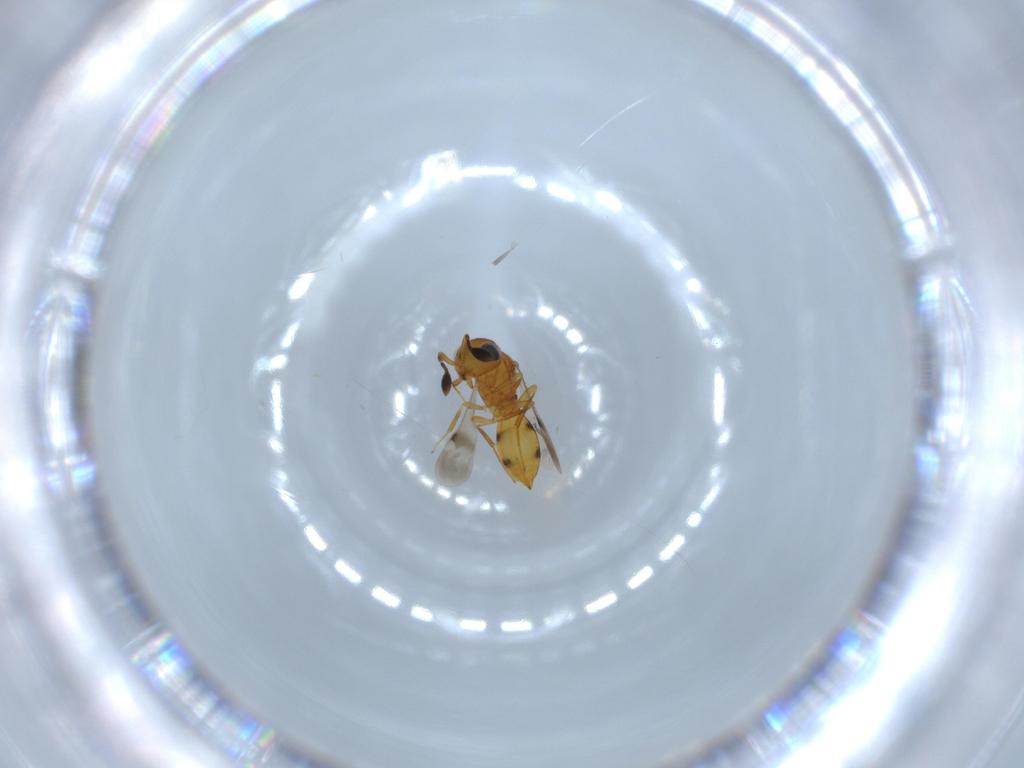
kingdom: Animalia
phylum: Arthropoda
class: Insecta
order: Hymenoptera
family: Scelionidae
